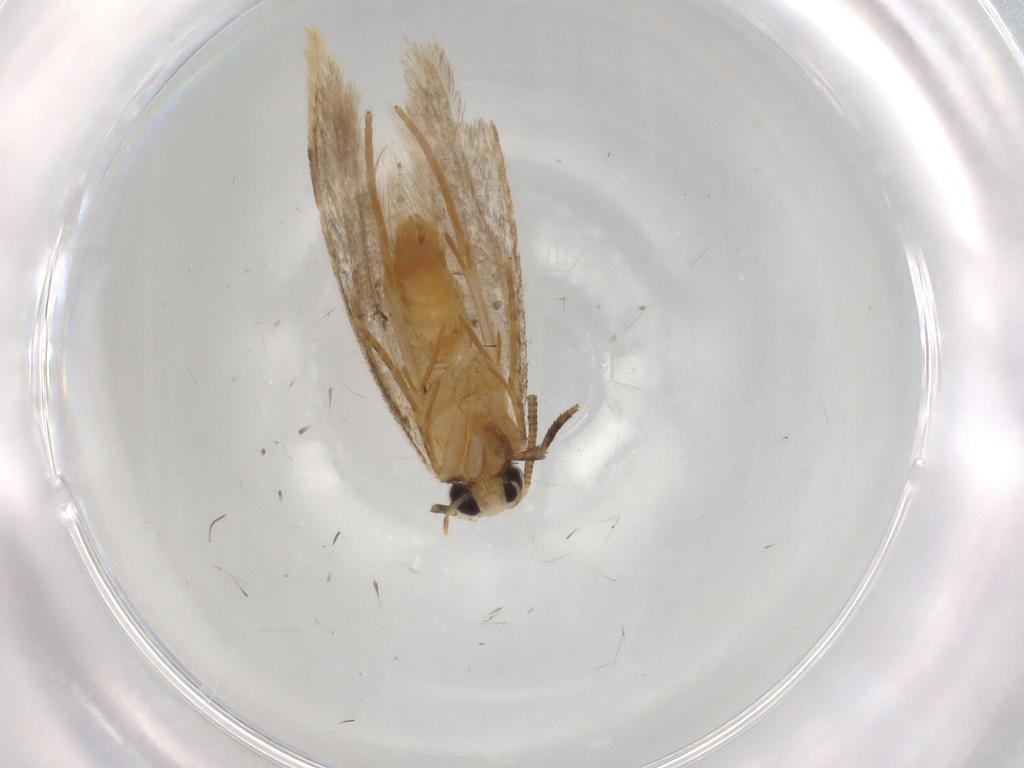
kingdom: Animalia
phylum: Arthropoda
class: Insecta
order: Lepidoptera
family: Tineidae
